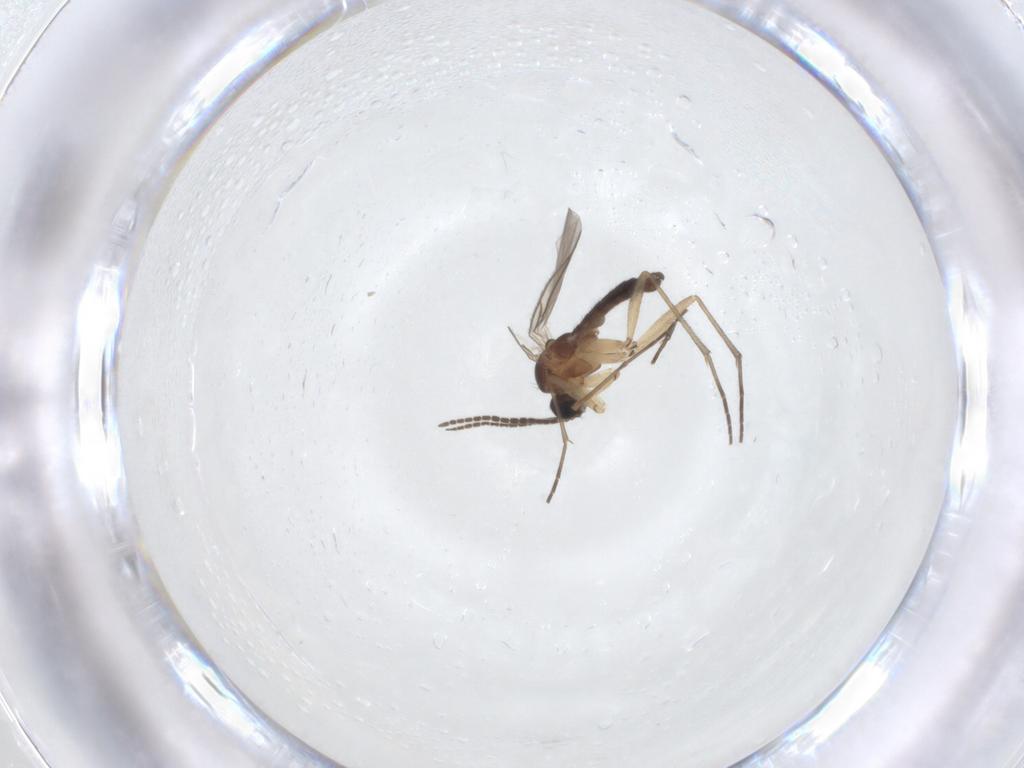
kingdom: Animalia
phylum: Arthropoda
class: Insecta
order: Diptera
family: Sciaridae
